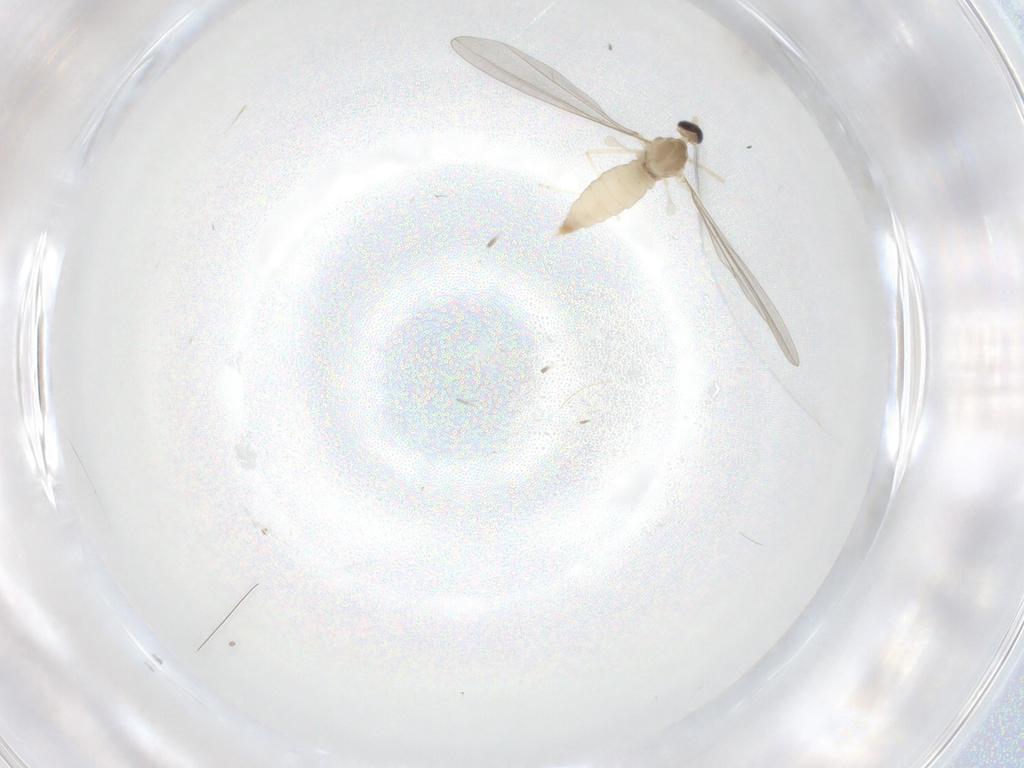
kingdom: Animalia
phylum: Arthropoda
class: Insecta
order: Diptera
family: Cecidomyiidae
